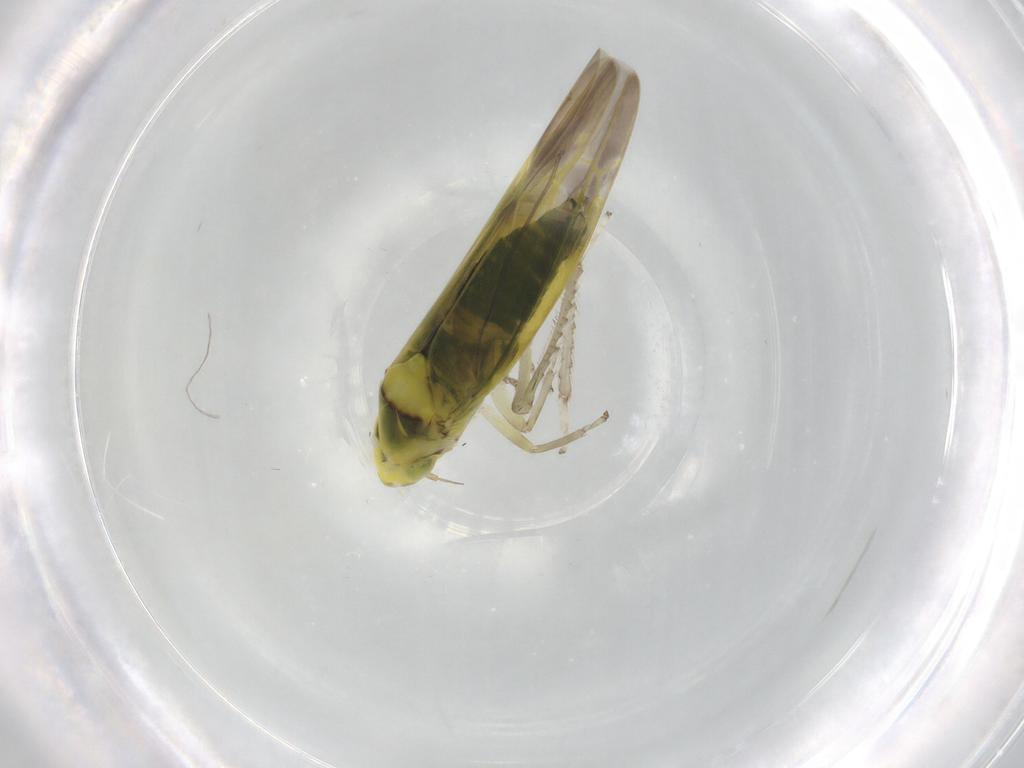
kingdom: Animalia
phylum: Arthropoda
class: Insecta
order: Hemiptera
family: Cicadellidae
